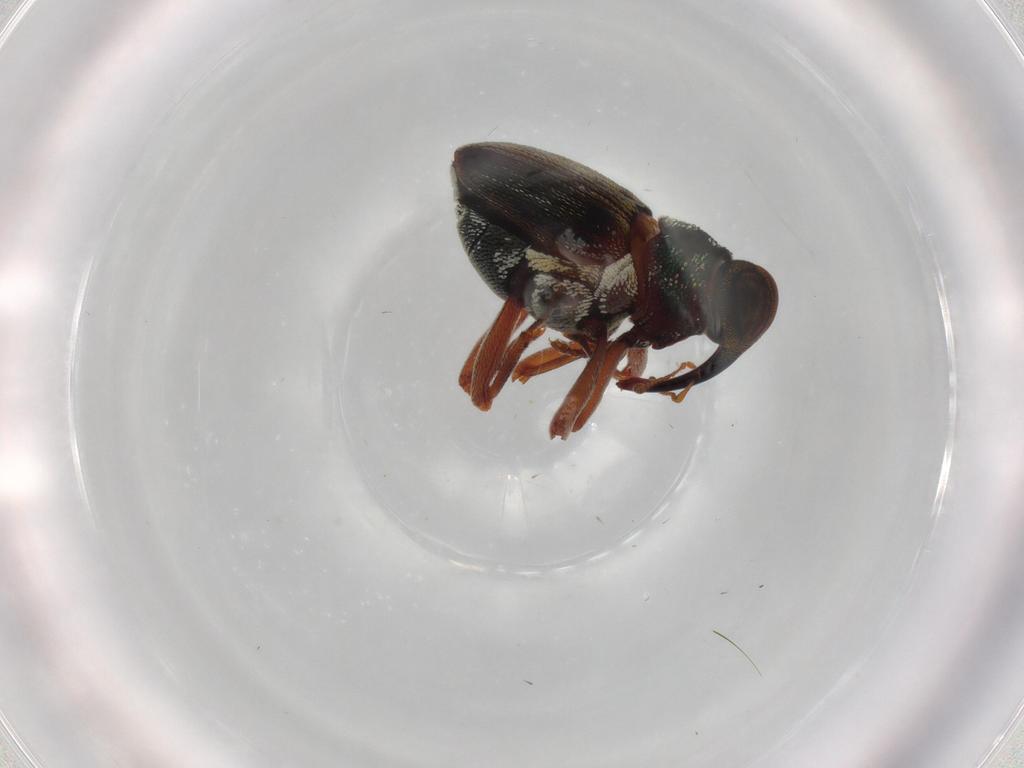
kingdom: Animalia
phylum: Arthropoda
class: Insecta
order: Coleoptera
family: Curculionidae
